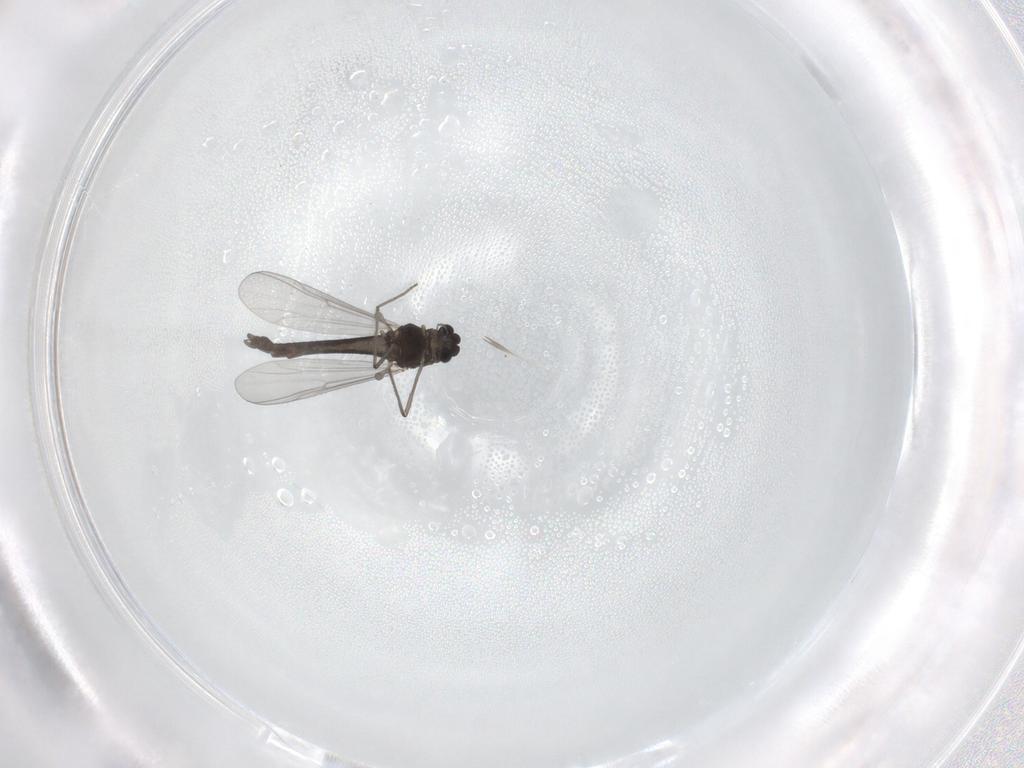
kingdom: Animalia
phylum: Arthropoda
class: Insecta
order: Diptera
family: Chironomidae
